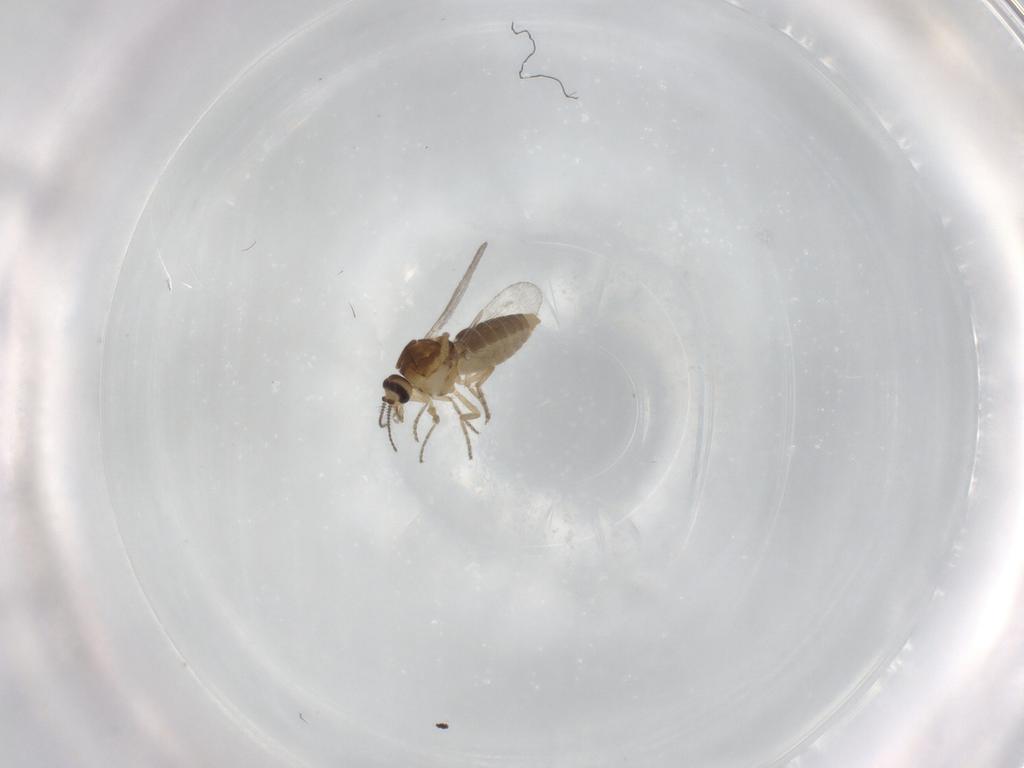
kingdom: Animalia
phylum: Arthropoda
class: Insecta
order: Diptera
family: Ceratopogonidae
